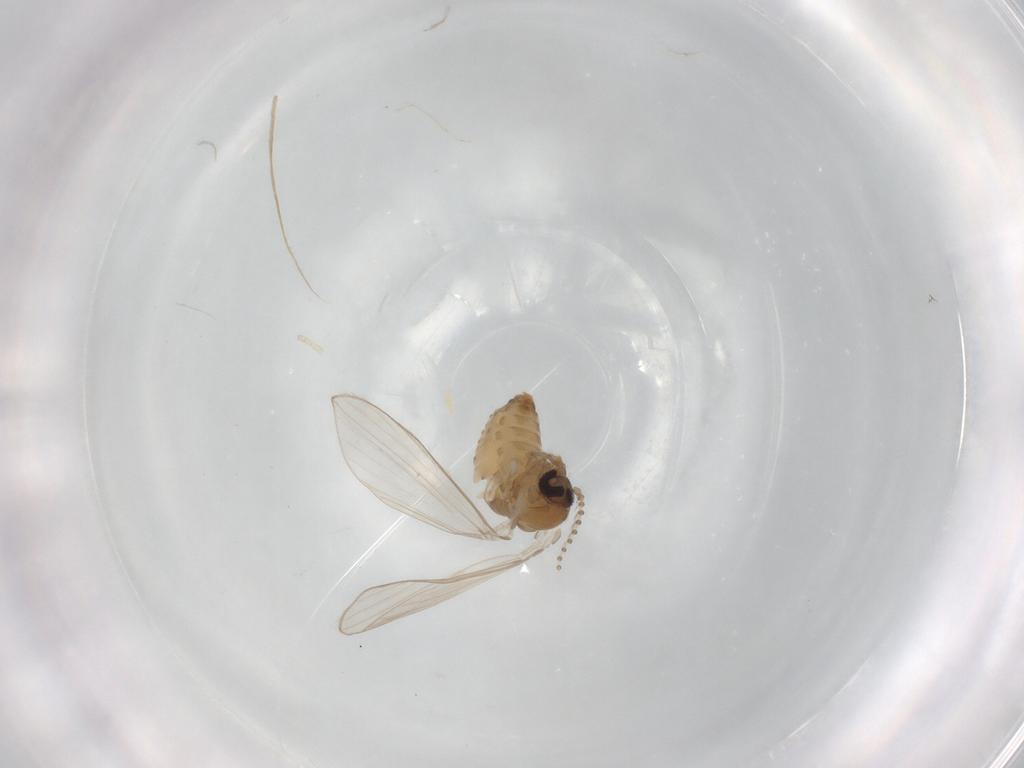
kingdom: Animalia
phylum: Arthropoda
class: Insecta
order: Diptera
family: Psychodidae
